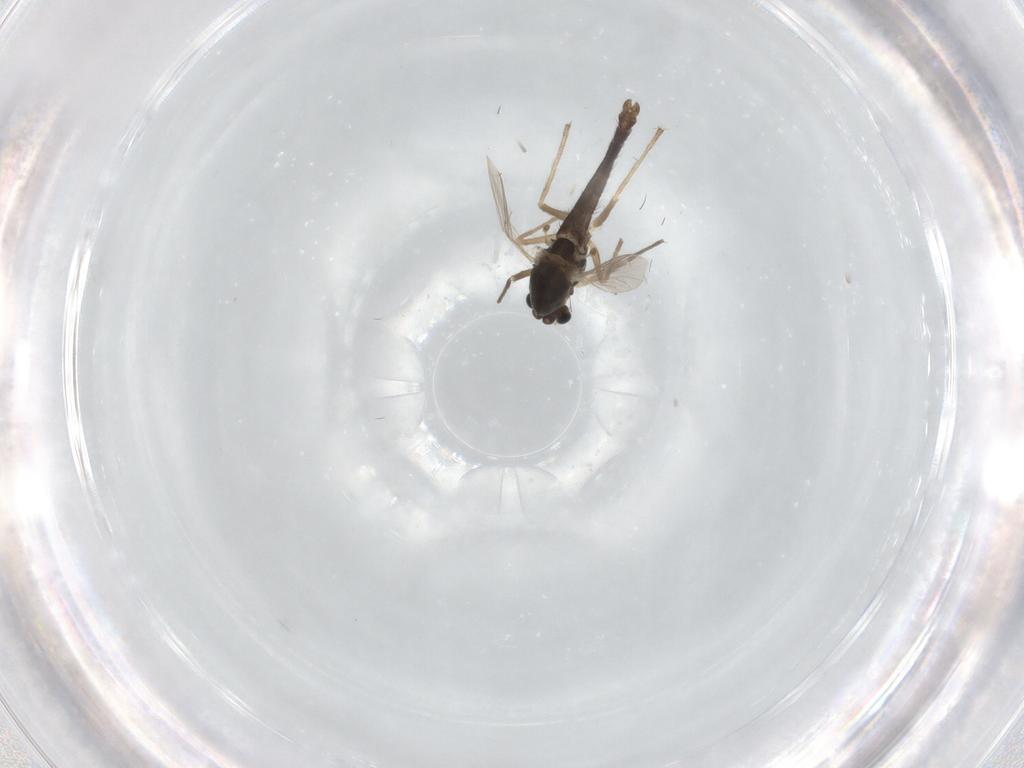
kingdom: Animalia
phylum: Arthropoda
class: Insecta
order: Diptera
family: Chironomidae
